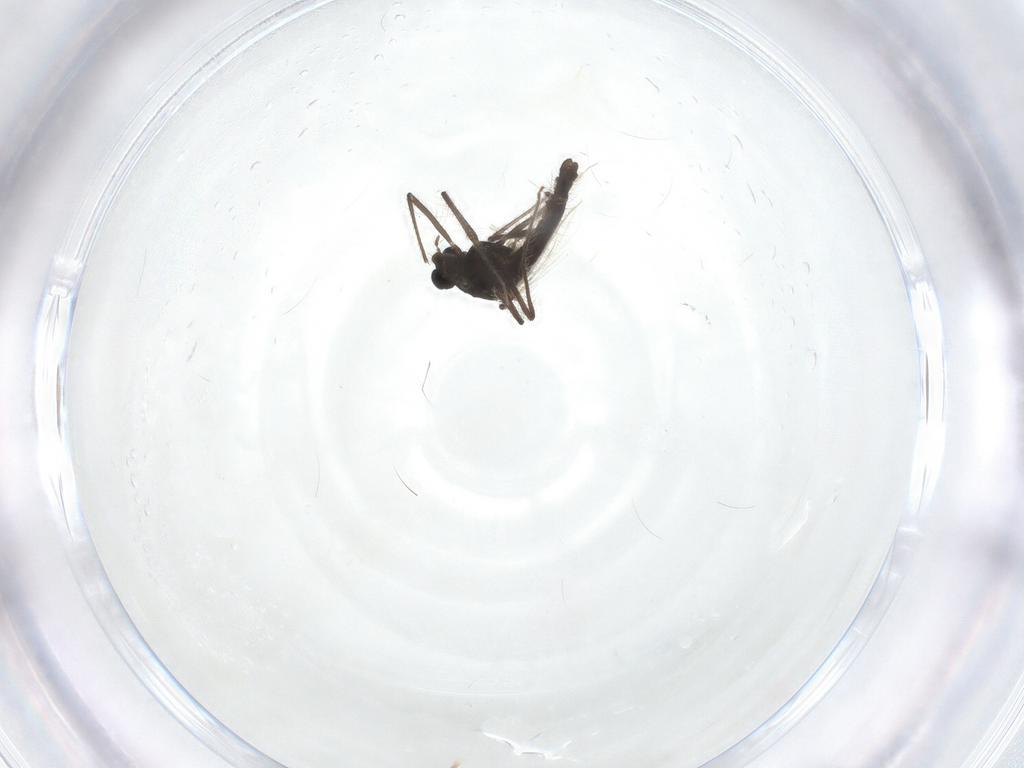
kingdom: Animalia
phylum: Arthropoda
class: Insecta
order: Diptera
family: Chironomidae
